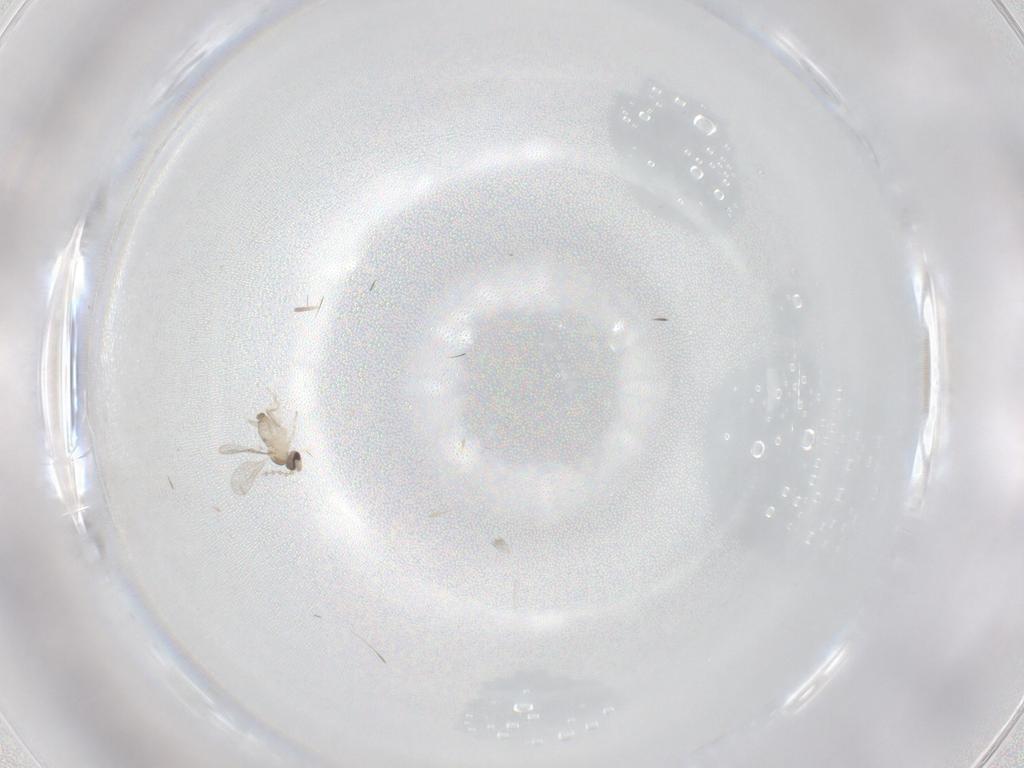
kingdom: Animalia
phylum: Arthropoda
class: Insecta
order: Diptera
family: Cecidomyiidae
